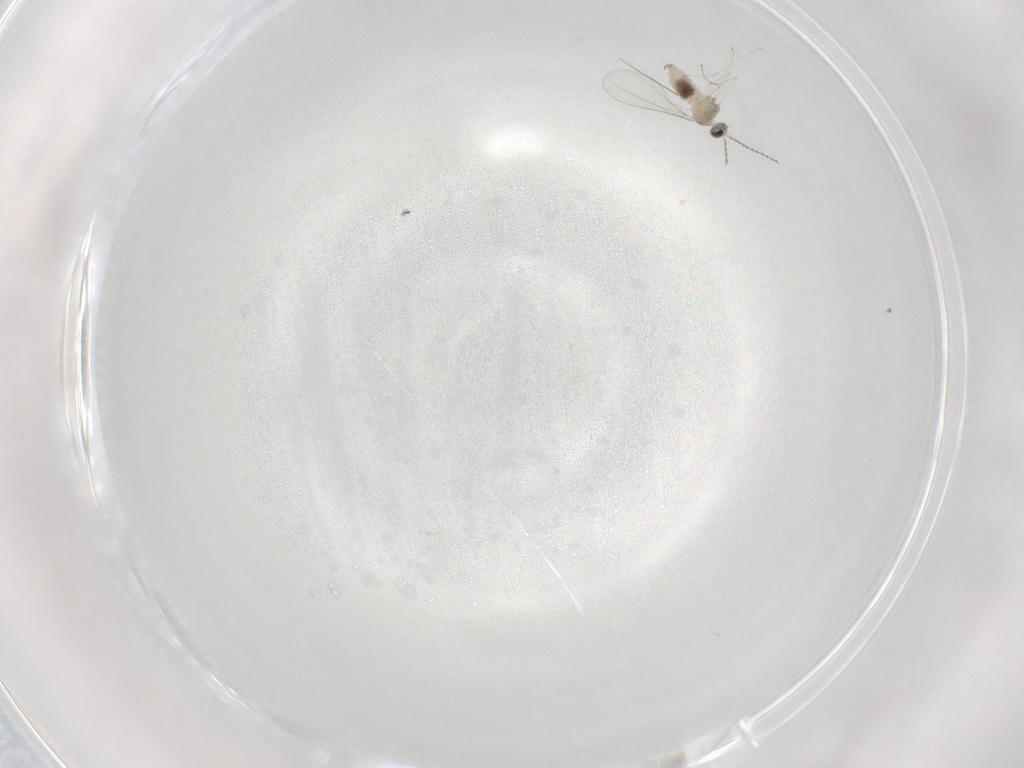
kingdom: Animalia
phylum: Arthropoda
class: Insecta
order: Diptera
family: Cecidomyiidae
